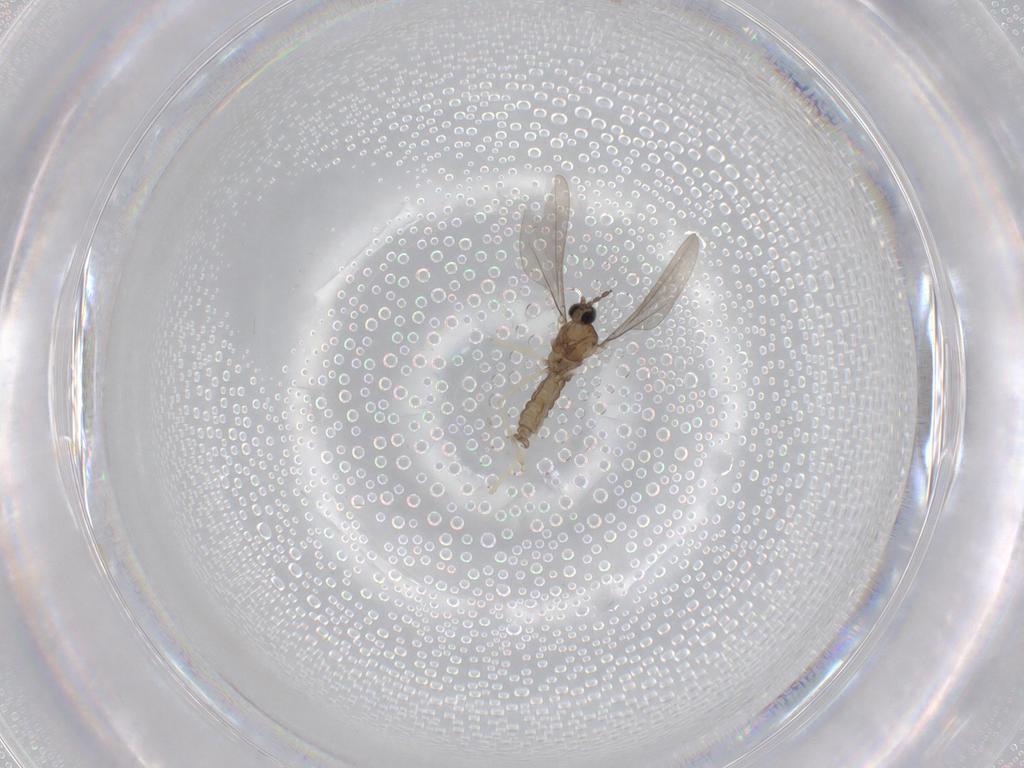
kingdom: Animalia
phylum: Arthropoda
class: Insecta
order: Diptera
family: Sciaridae
